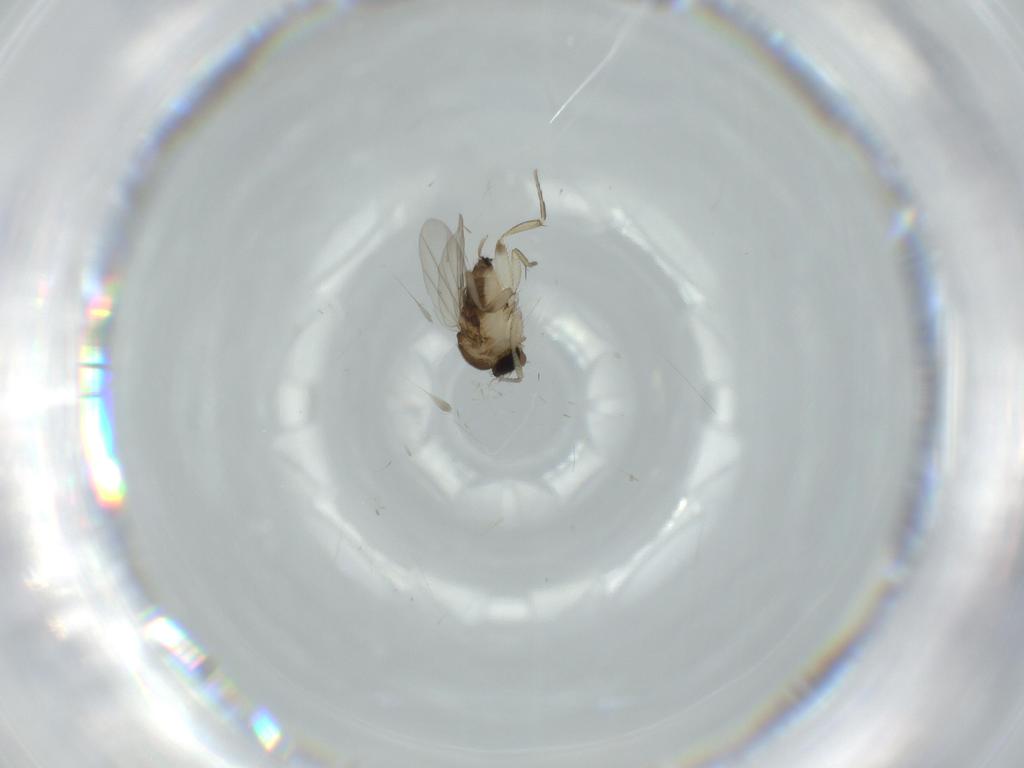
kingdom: Animalia
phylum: Arthropoda
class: Insecta
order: Diptera
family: Phoridae
